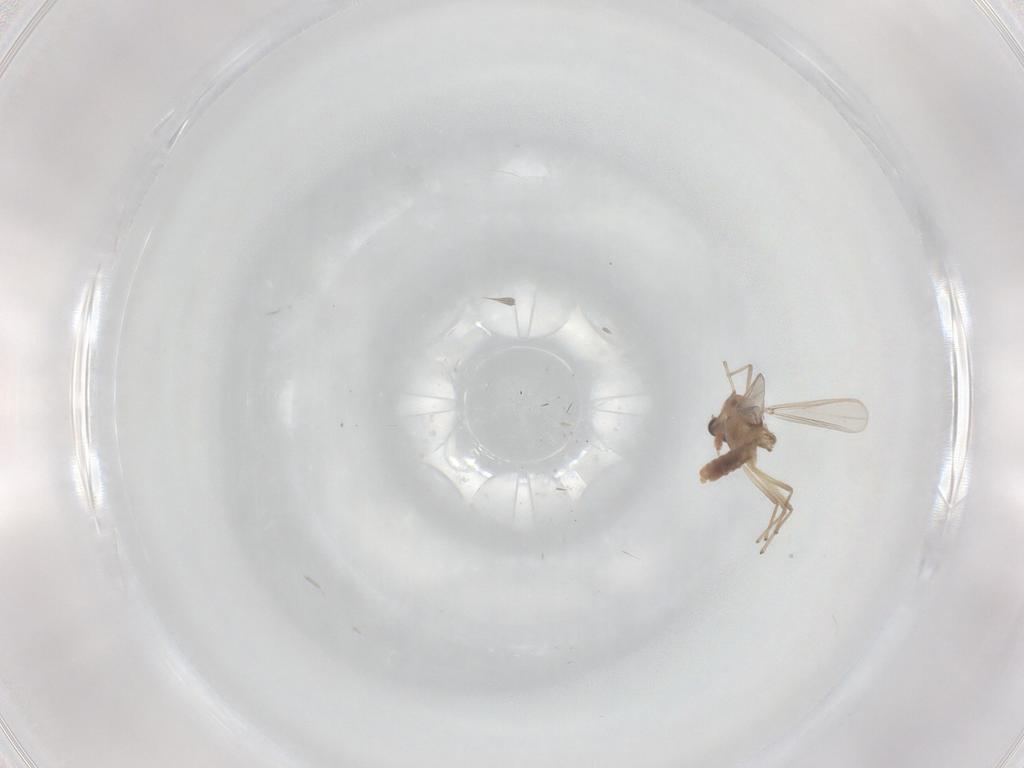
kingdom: Animalia
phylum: Arthropoda
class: Insecta
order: Diptera
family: Chironomidae
